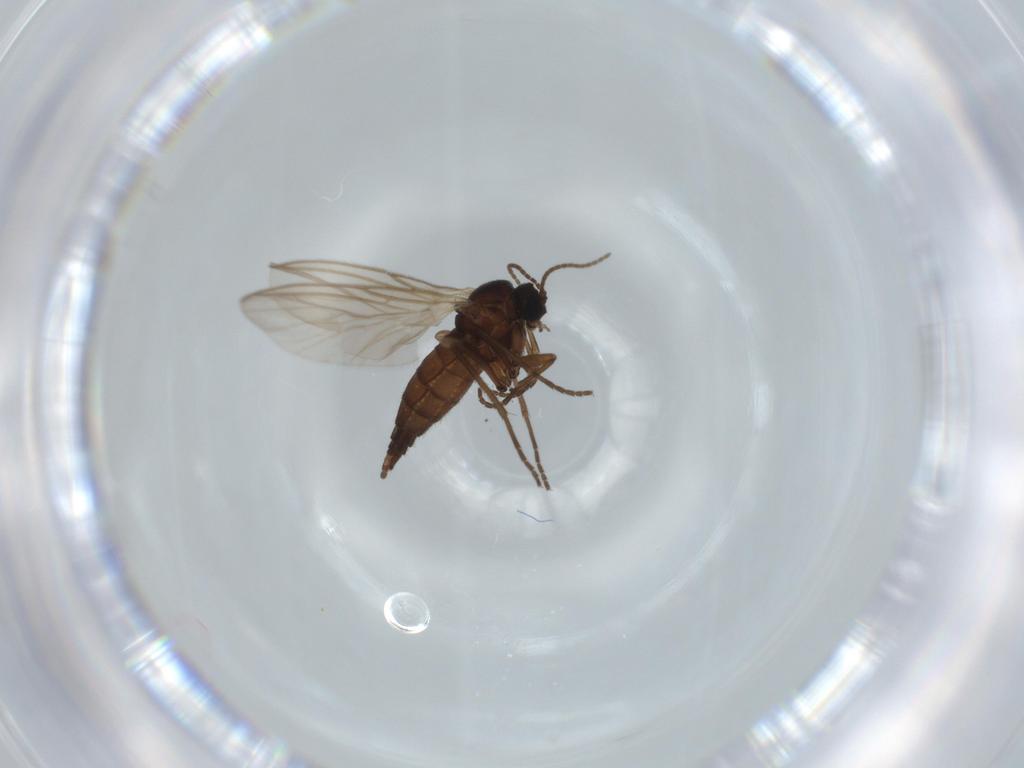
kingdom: Animalia
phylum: Arthropoda
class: Insecta
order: Diptera
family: Sciaridae
